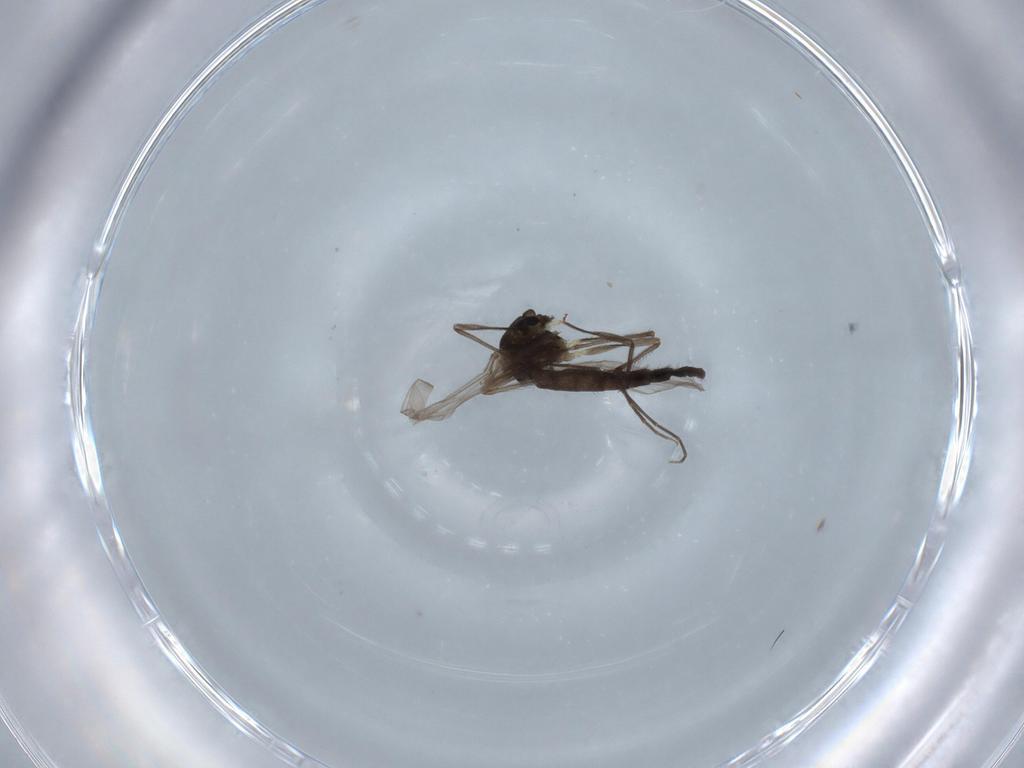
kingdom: Animalia
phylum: Arthropoda
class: Insecta
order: Diptera
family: Chironomidae
